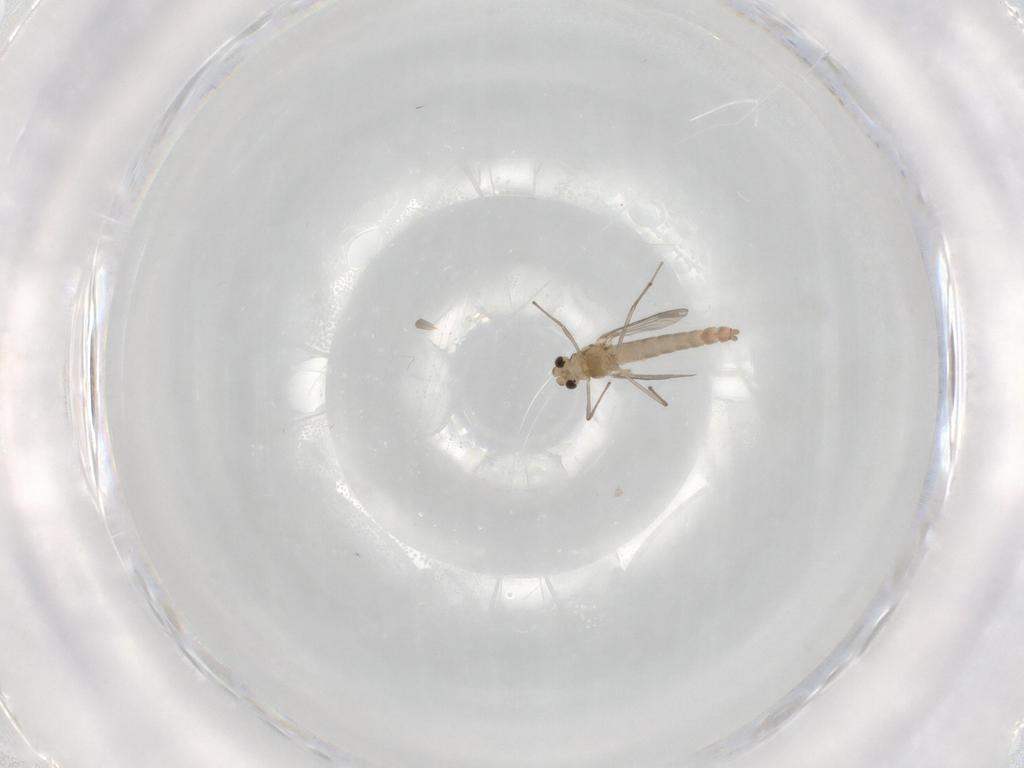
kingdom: Animalia
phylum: Arthropoda
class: Insecta
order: Diptera
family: Chironomidae
